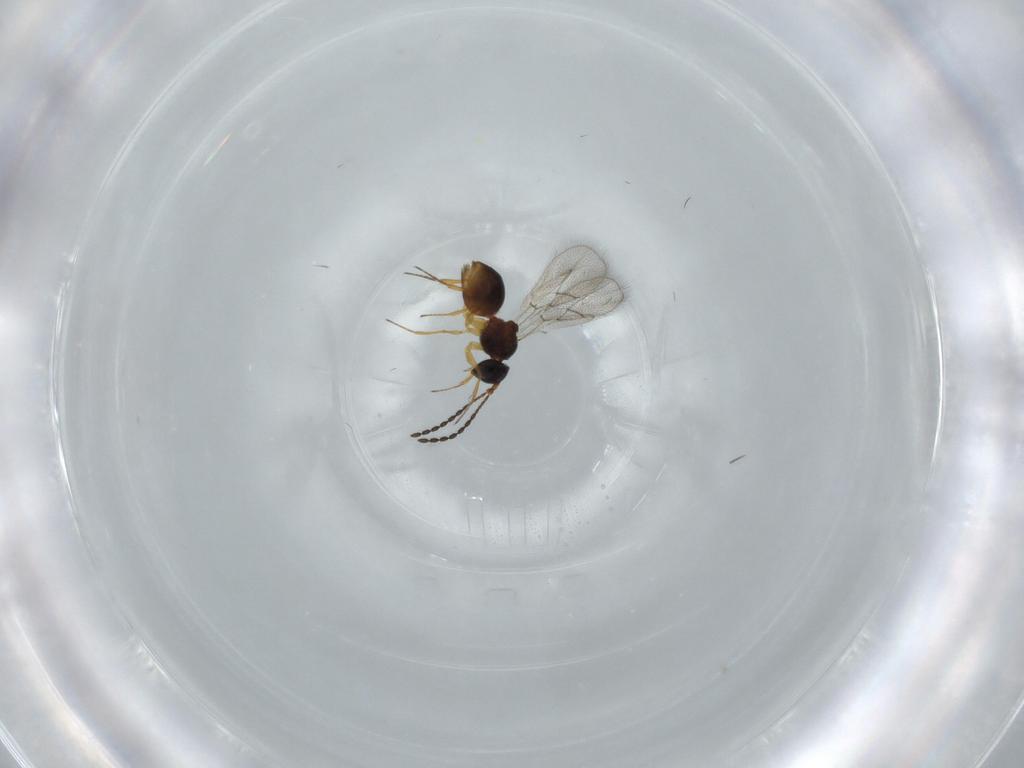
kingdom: Animalia
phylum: Arthropoda
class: Insecta
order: Hymenoptera
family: Figitidae
